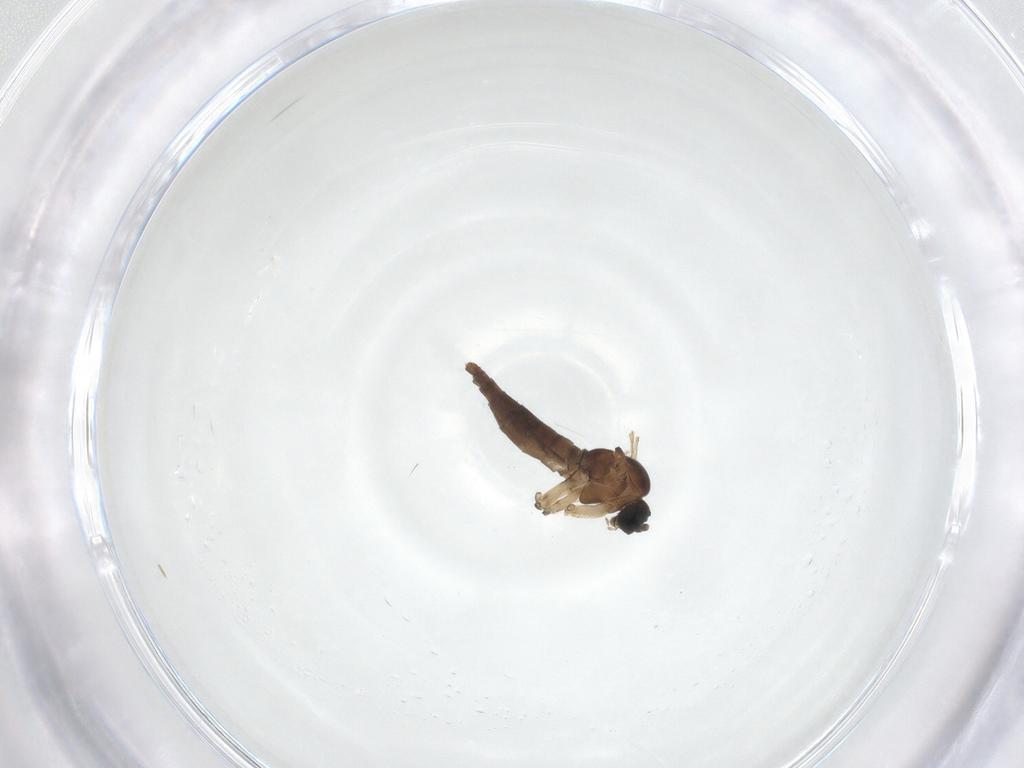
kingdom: Animalia
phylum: Arthropoda
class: Insecta
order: Diptera
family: Sciaridae
